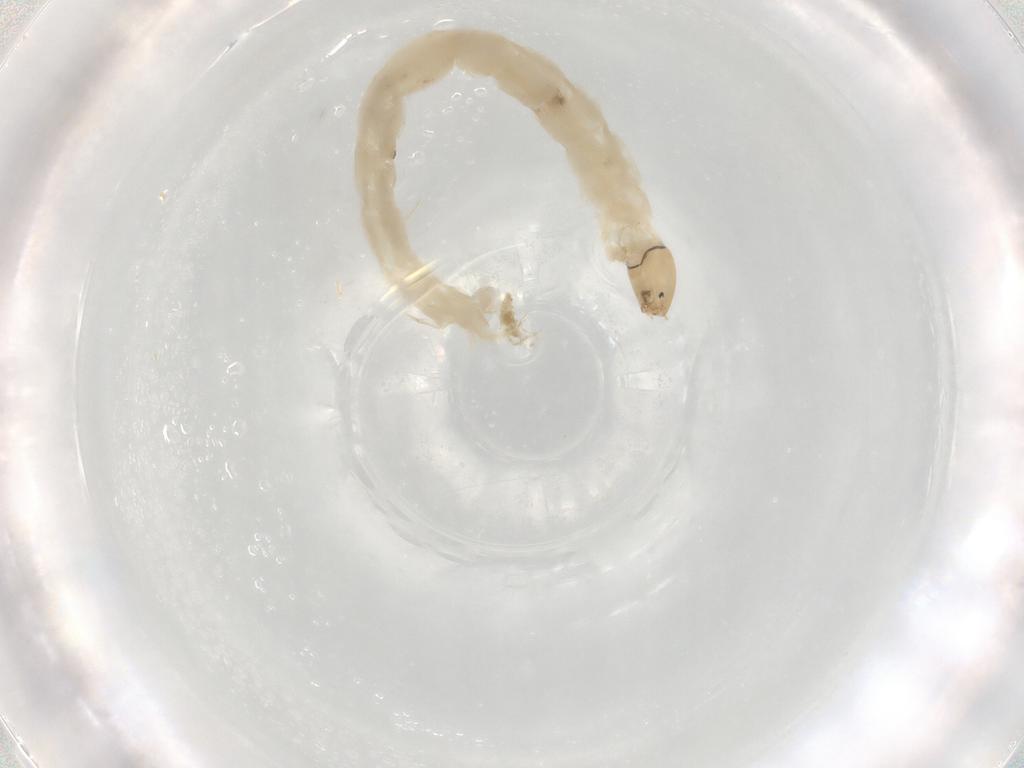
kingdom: Animalia
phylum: Arthropoda
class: Insecta
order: Diptera
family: Chironomidae
